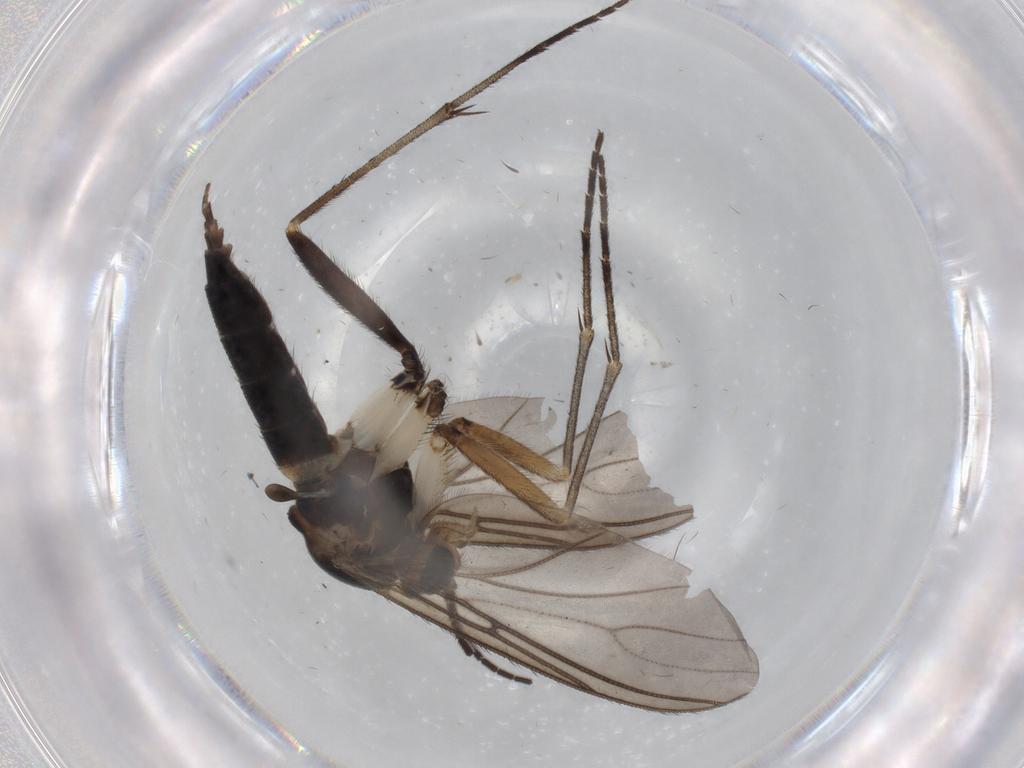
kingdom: Animalia
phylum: Arthropoda
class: Insecta
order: Diptera
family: Sciaridae
